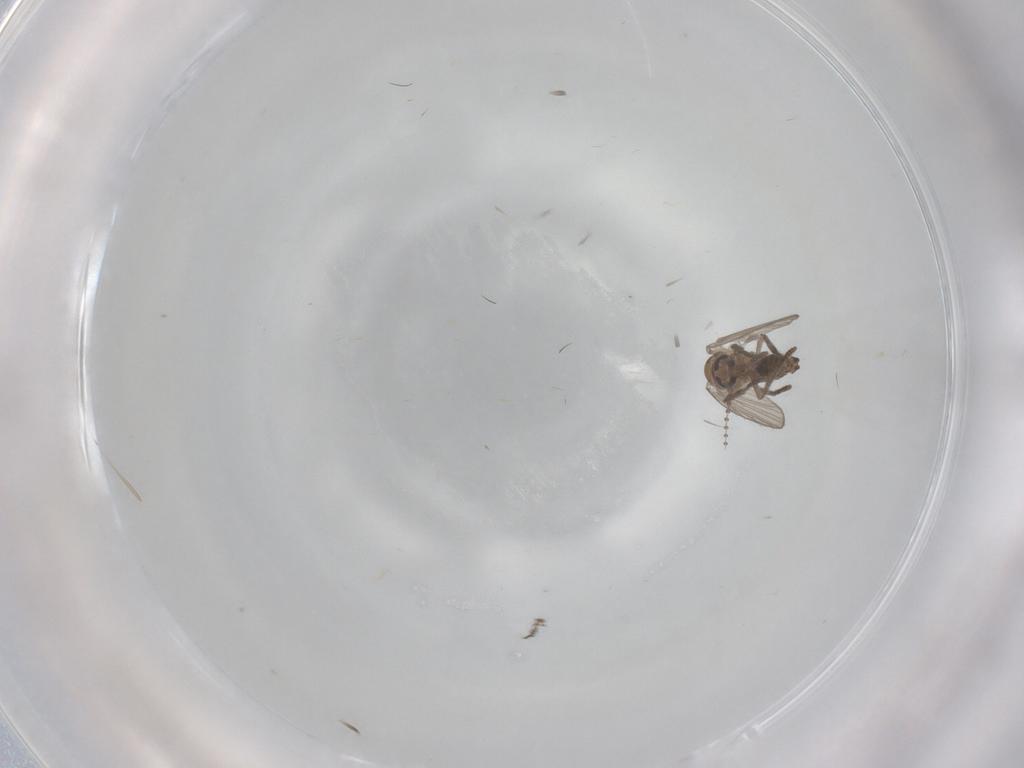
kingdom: Animalia
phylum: Arthropoda
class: Insecta
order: Diptera
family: Psychodidae
